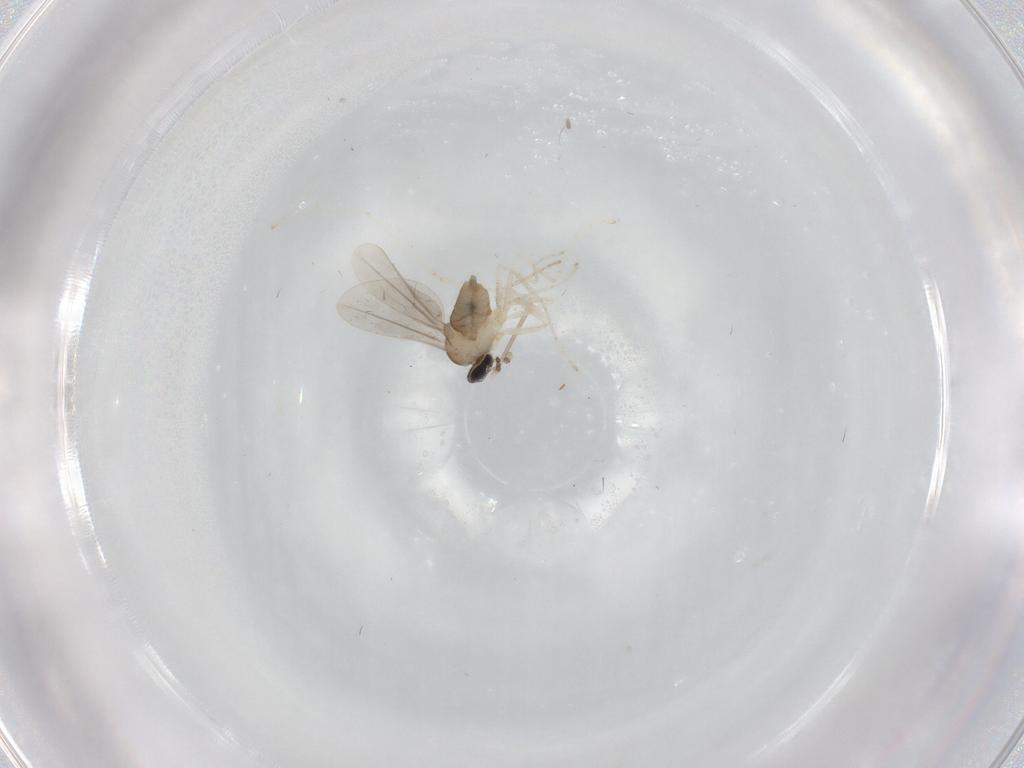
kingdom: Animalia
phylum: Arthropoda
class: Insecta
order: Diptera
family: Cecidomyiidae
